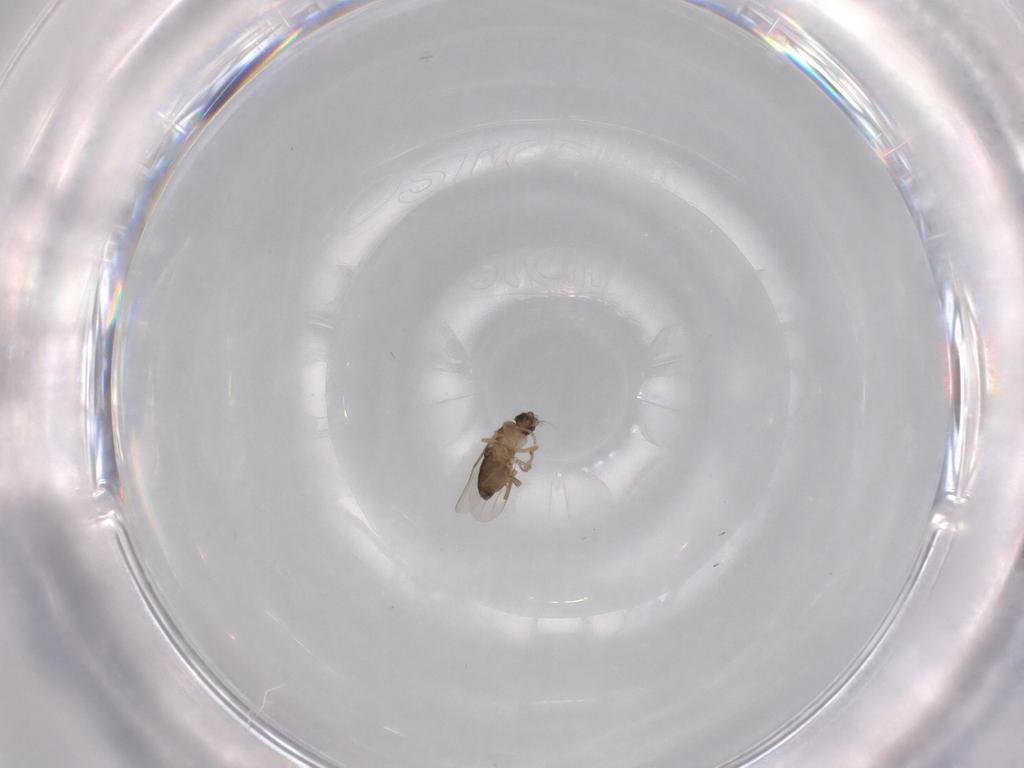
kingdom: Animalia
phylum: Arthropoda
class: Insecta
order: Diptera
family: Phoridae
